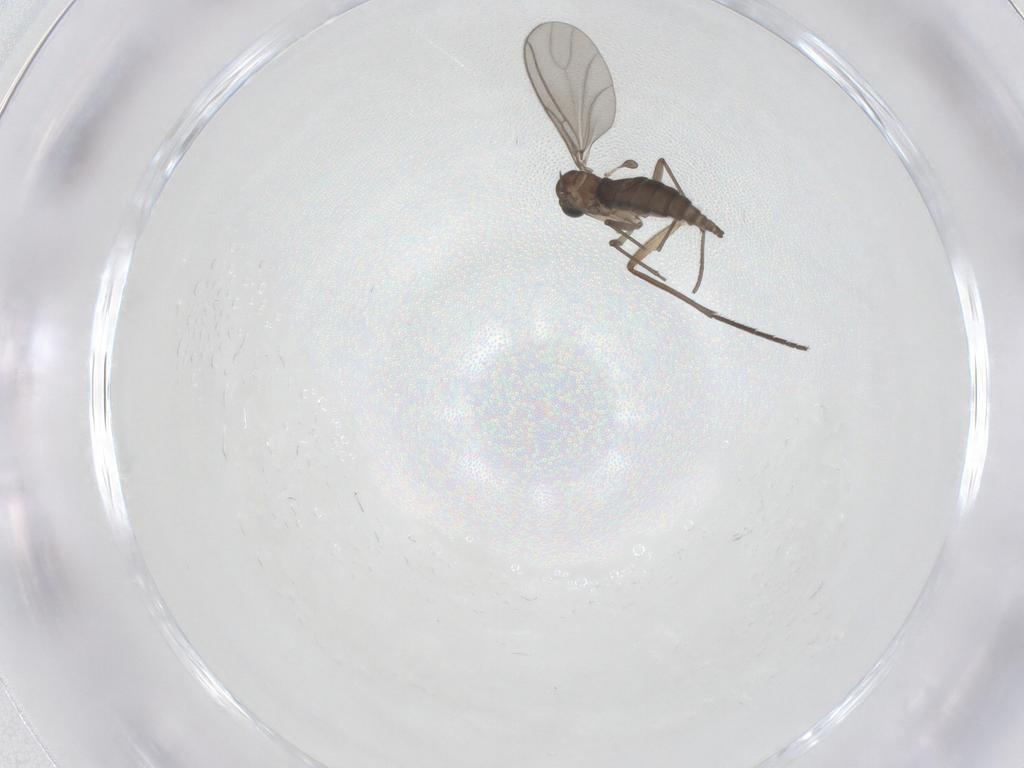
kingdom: Animalia
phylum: Arthropoda
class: Insecta
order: Diptera
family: Sciaridae
